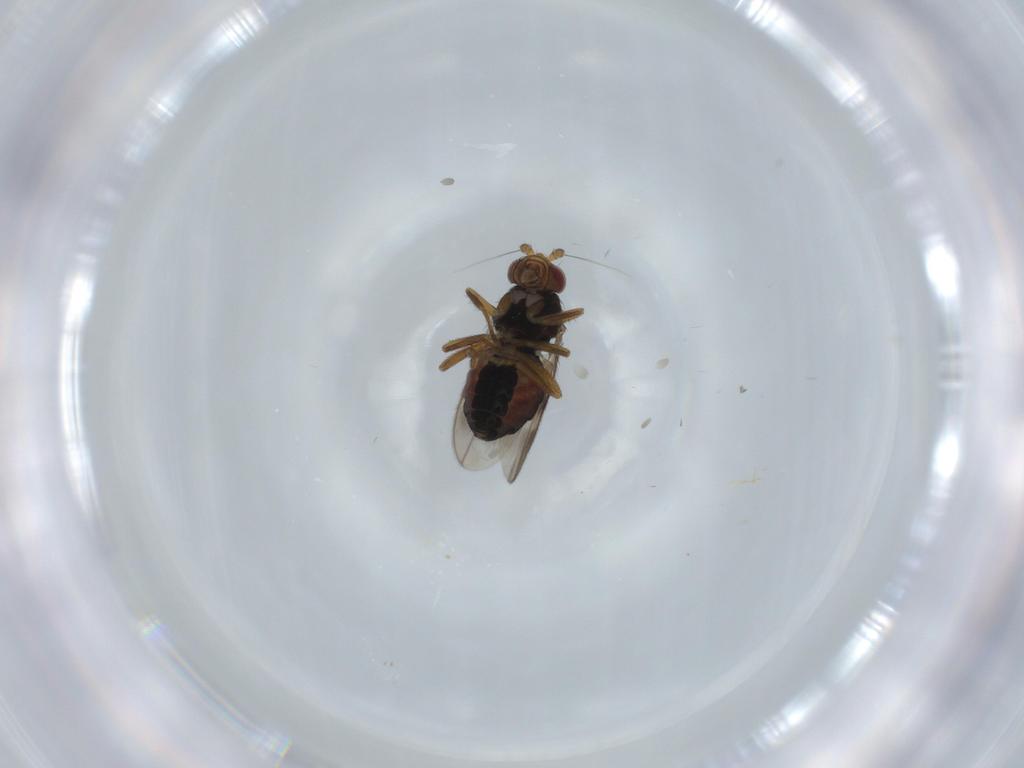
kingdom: Animalia
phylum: Arthropoda
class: Insecta
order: Diptera
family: Sphaeroceridae
